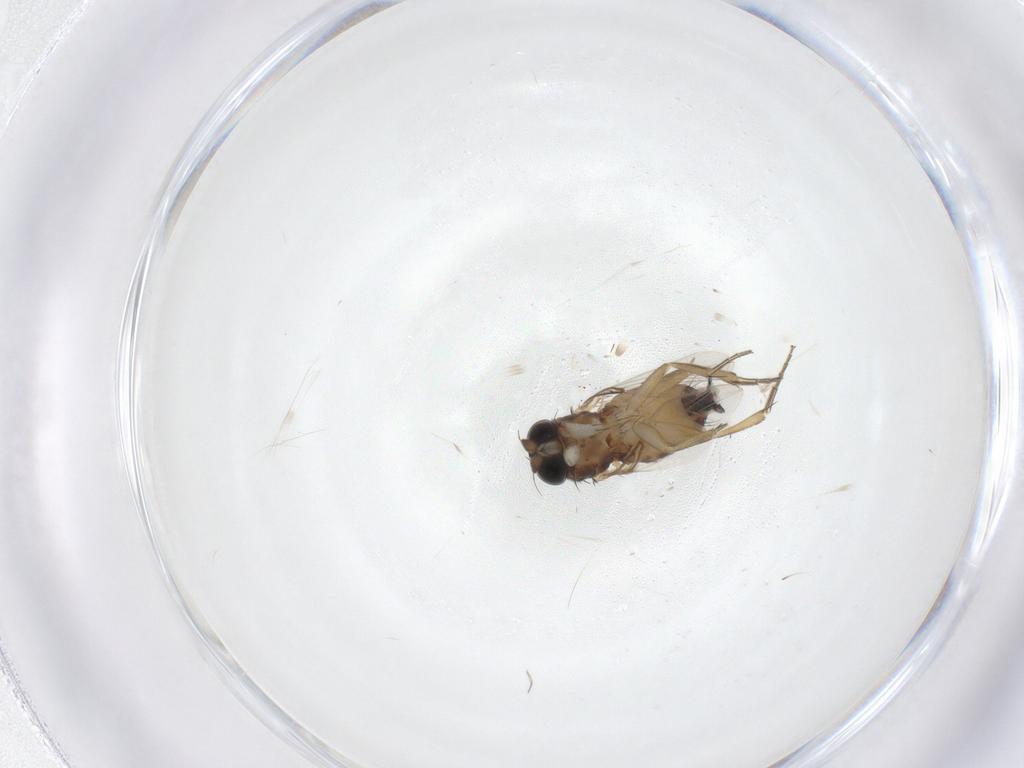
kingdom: Animalia
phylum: Arthropoda
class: Insecta
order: Diptera
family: Phoridae
